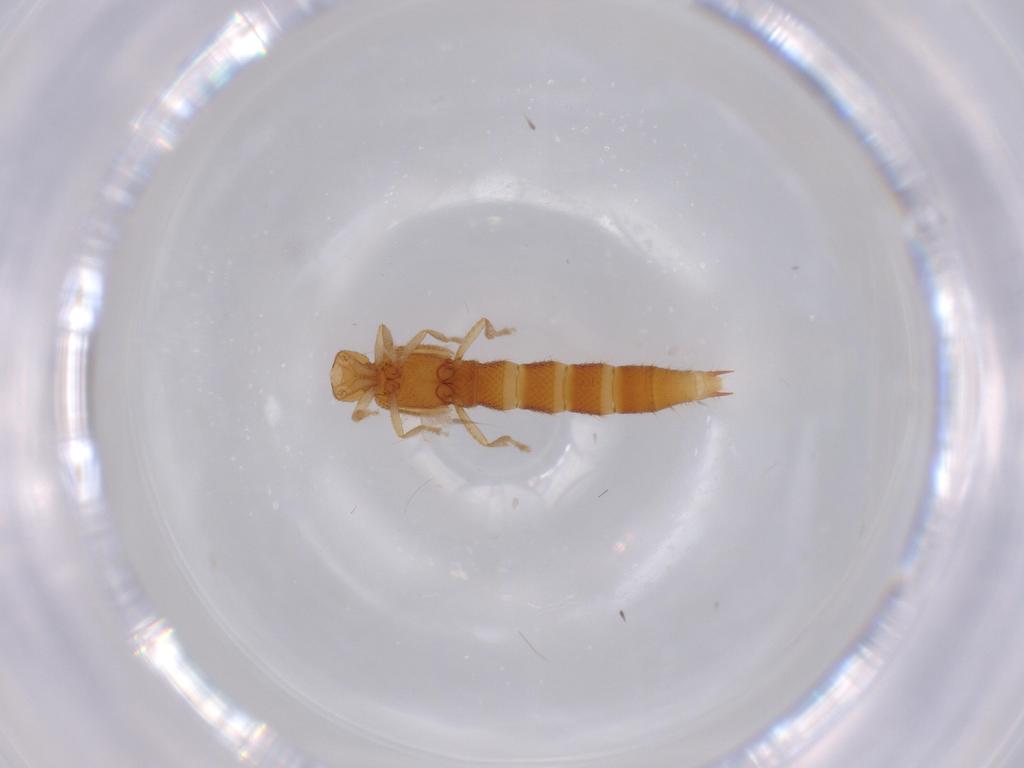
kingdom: Animalia
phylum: Arthropoda
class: Insecta
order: Coleoptera
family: Staphylinidae
